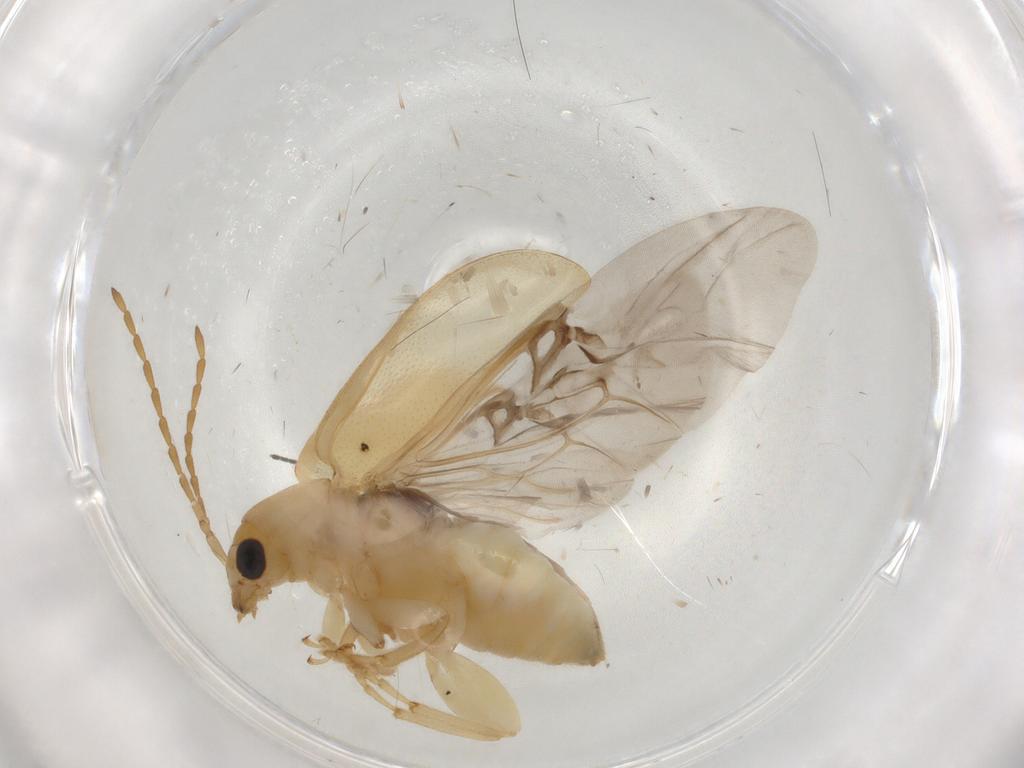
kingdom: Animalia
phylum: Arthropoda
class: Insecta
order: Coleoptera
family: Chrysomelidae
